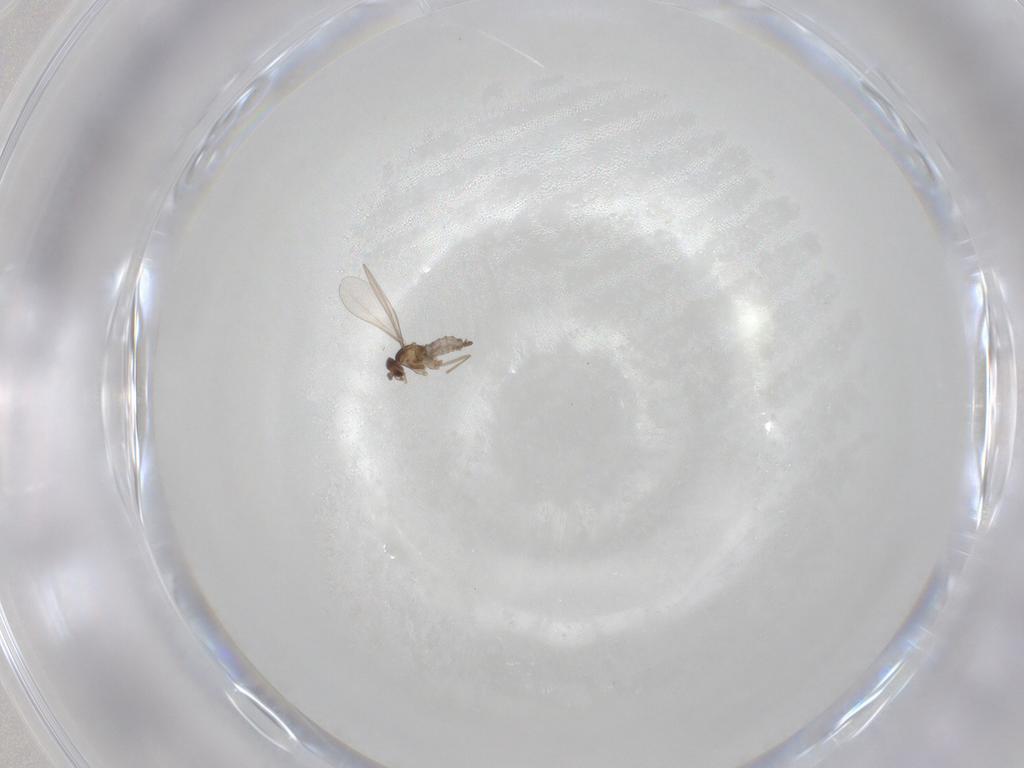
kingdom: Animalia
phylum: Arthropoda
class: Insecta
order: Diptera
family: Cecidomyiidae
